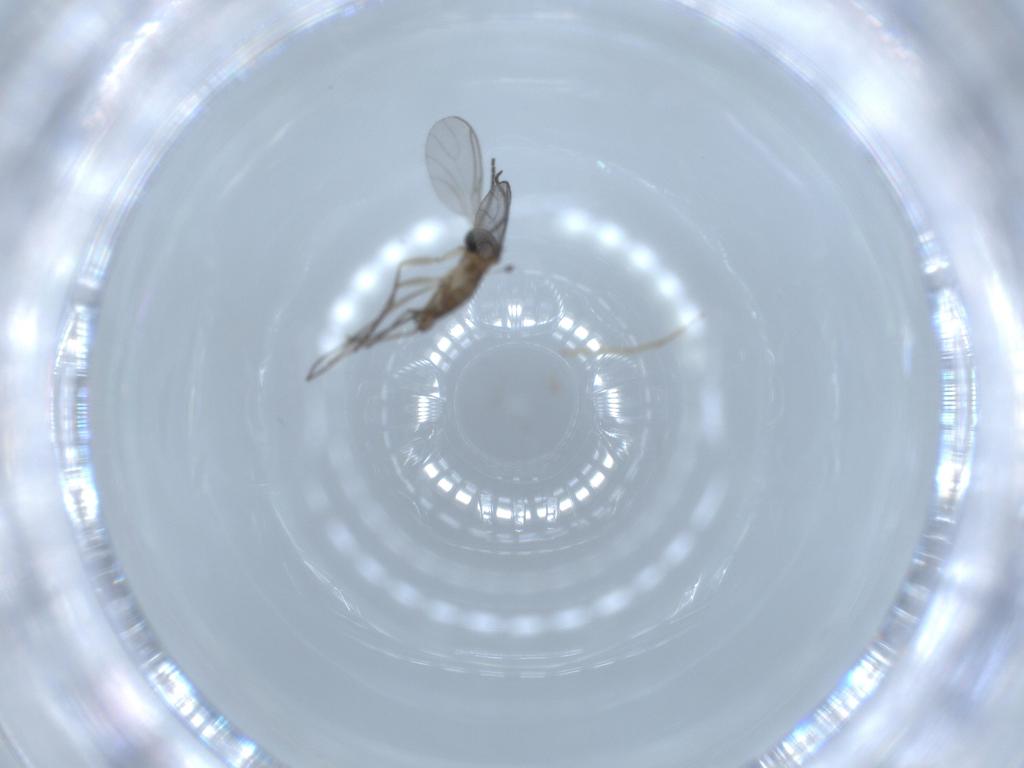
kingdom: Animalia
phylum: Arthropoda
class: Insecta
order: Diptera
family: Sciaridae
